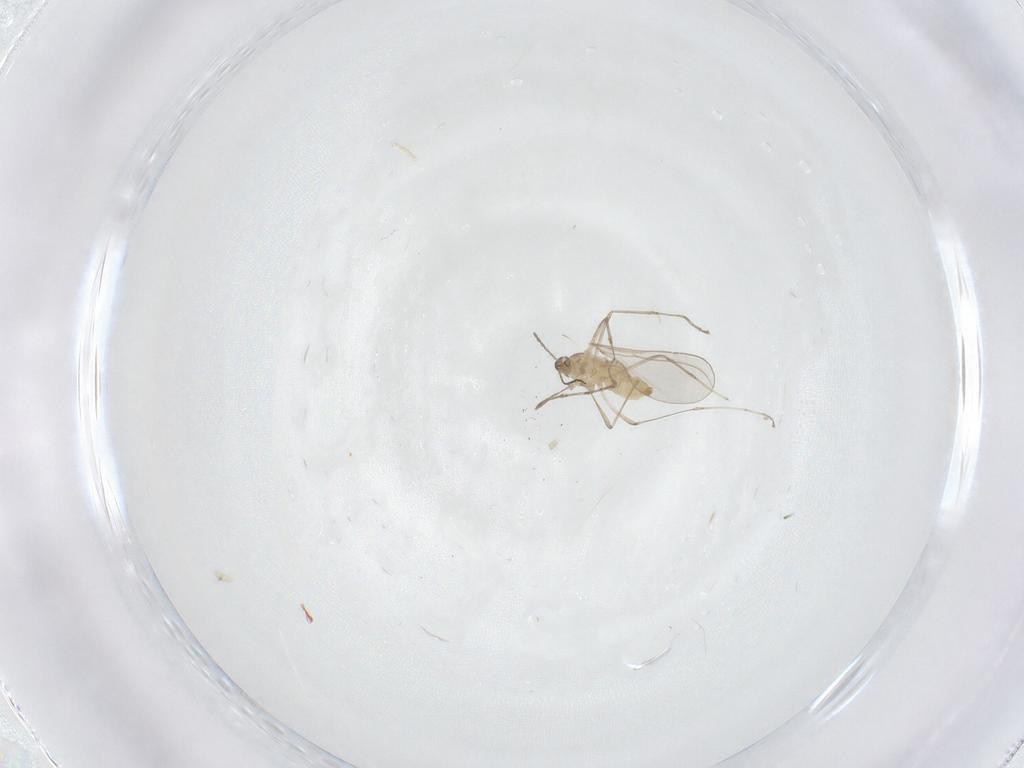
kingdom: Animalia
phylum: Arthropoda
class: Insecta
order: Diptera
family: Cecidomyiidae
